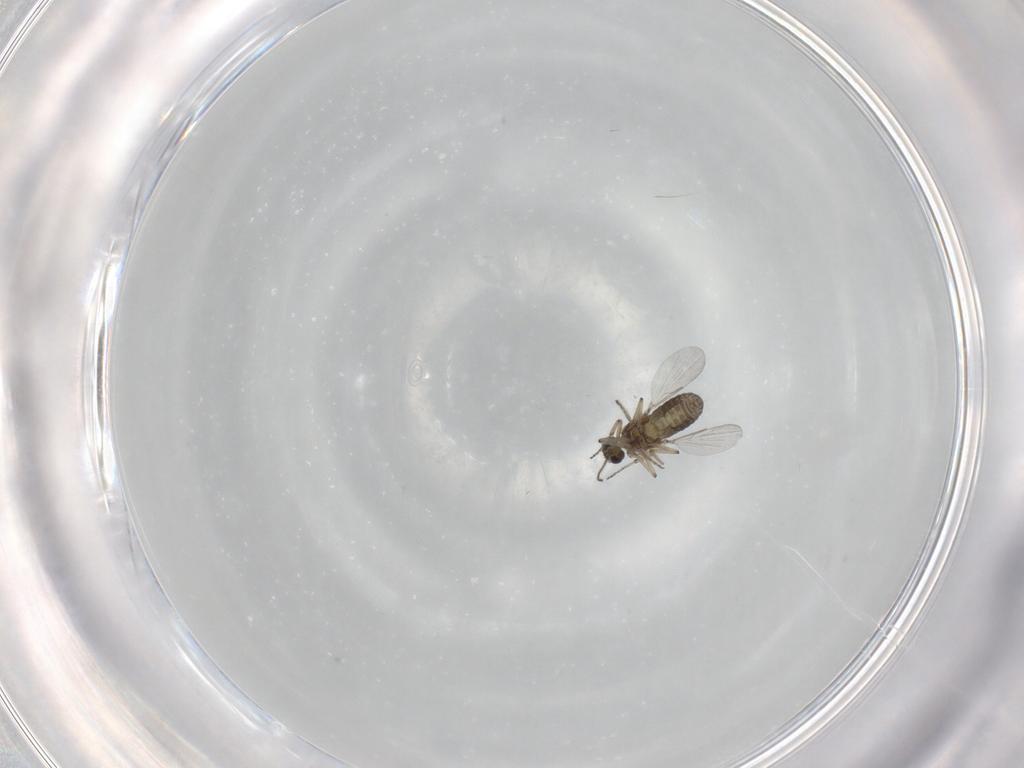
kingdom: Animalia
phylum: Arthropoda
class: Insecta
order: Diptera
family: Ceratopogonidae
